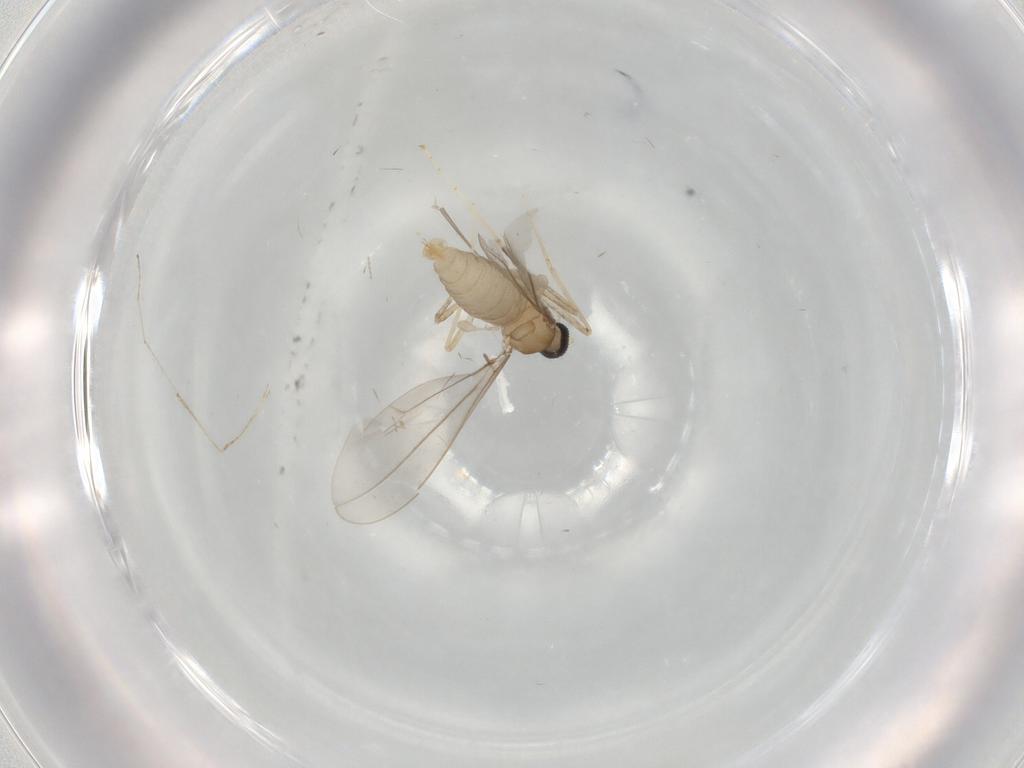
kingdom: Animalia
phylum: Arthropoda
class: Insecta
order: Diptera
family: Cecidomyiidae
